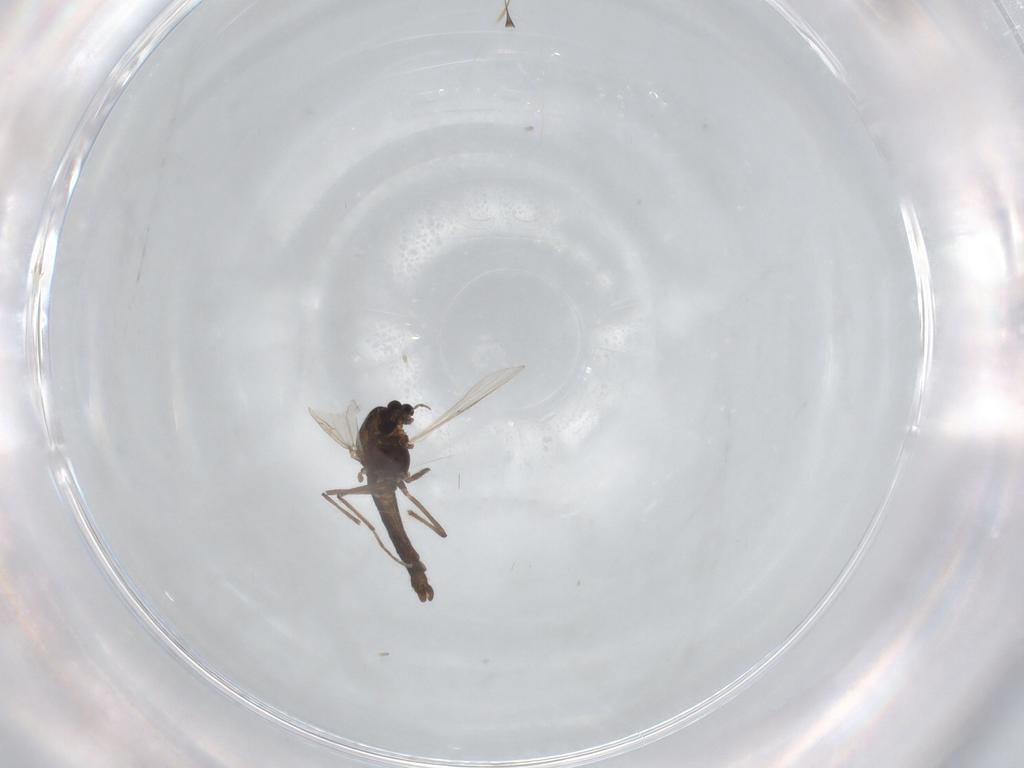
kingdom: Animalia
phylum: Arthropoda
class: Insecta
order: Diptera
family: Chironomidae
